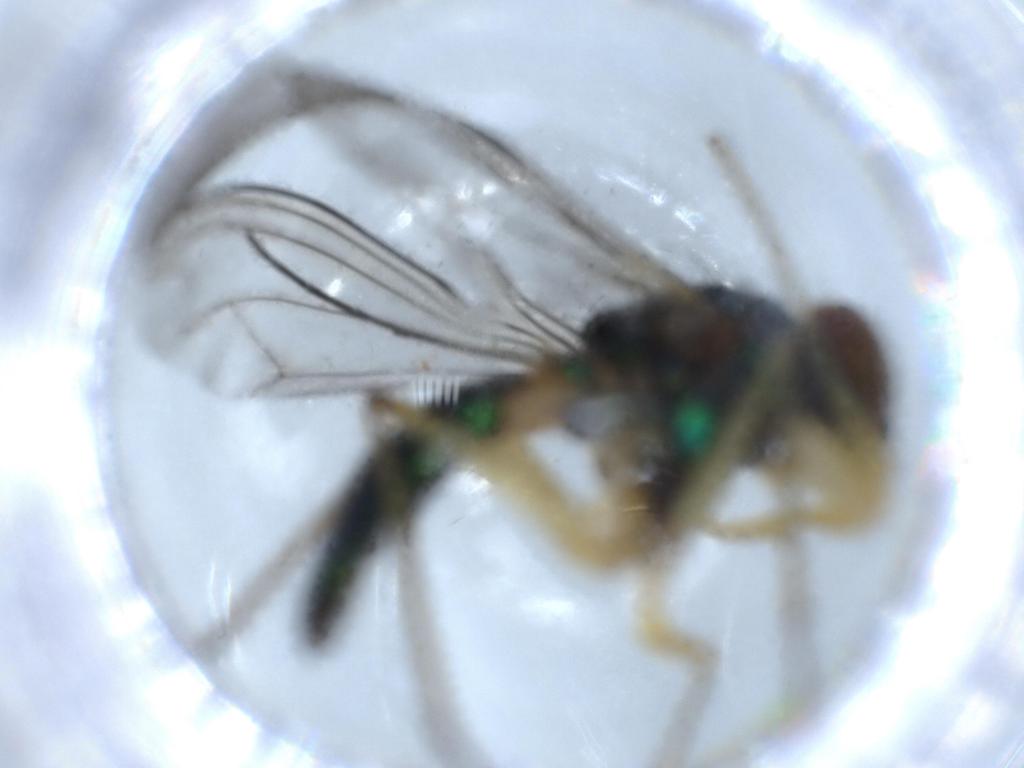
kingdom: Animalia
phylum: Arthropoda
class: Insecta
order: Diptera
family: Dolichopodidae
